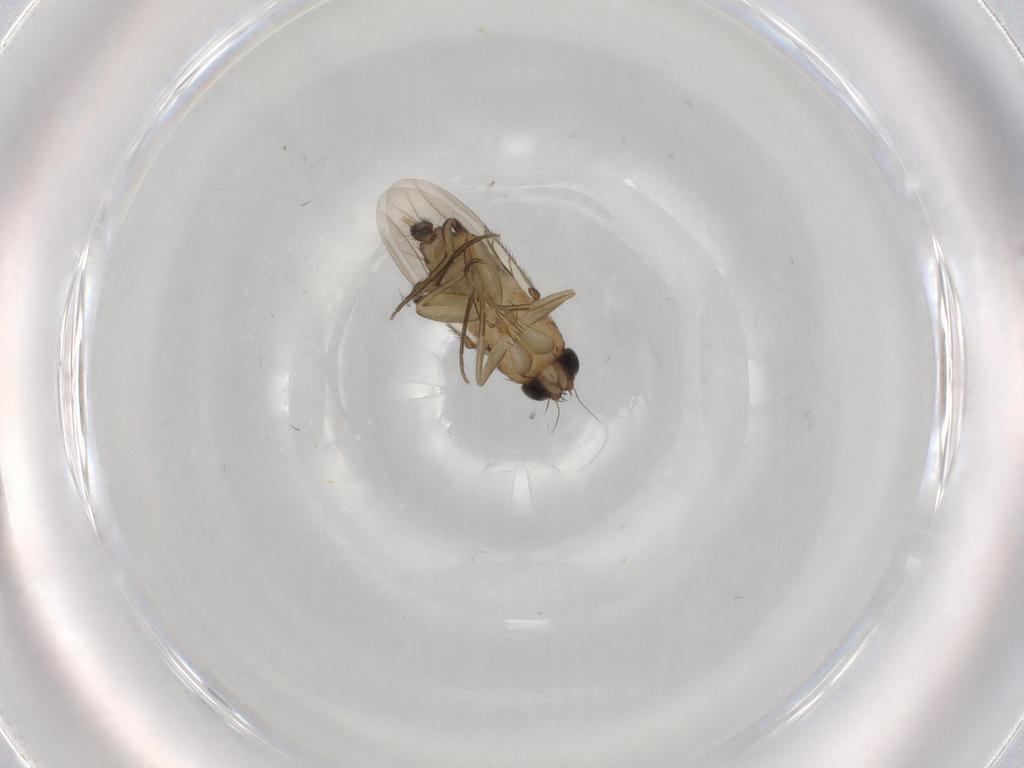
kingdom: Animalia
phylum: Arthropoda
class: Insecta
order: Diptera
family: Phoridae
